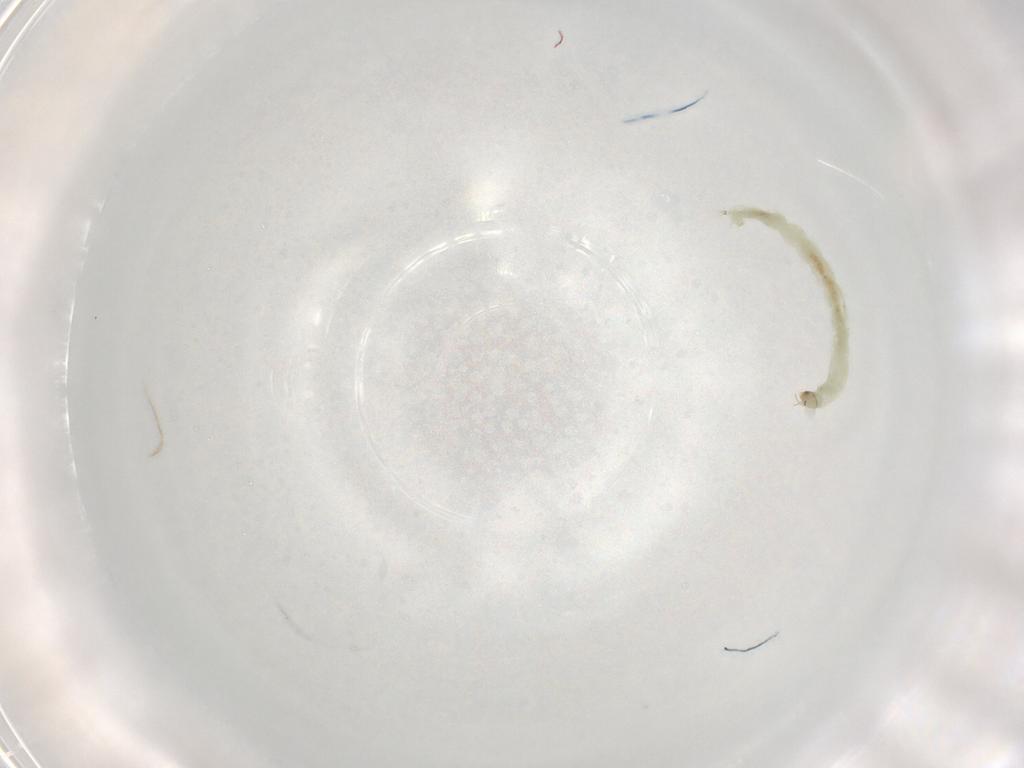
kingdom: Animalia
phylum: Arthropoda
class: Insecta
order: Diptera
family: Chironomidae
